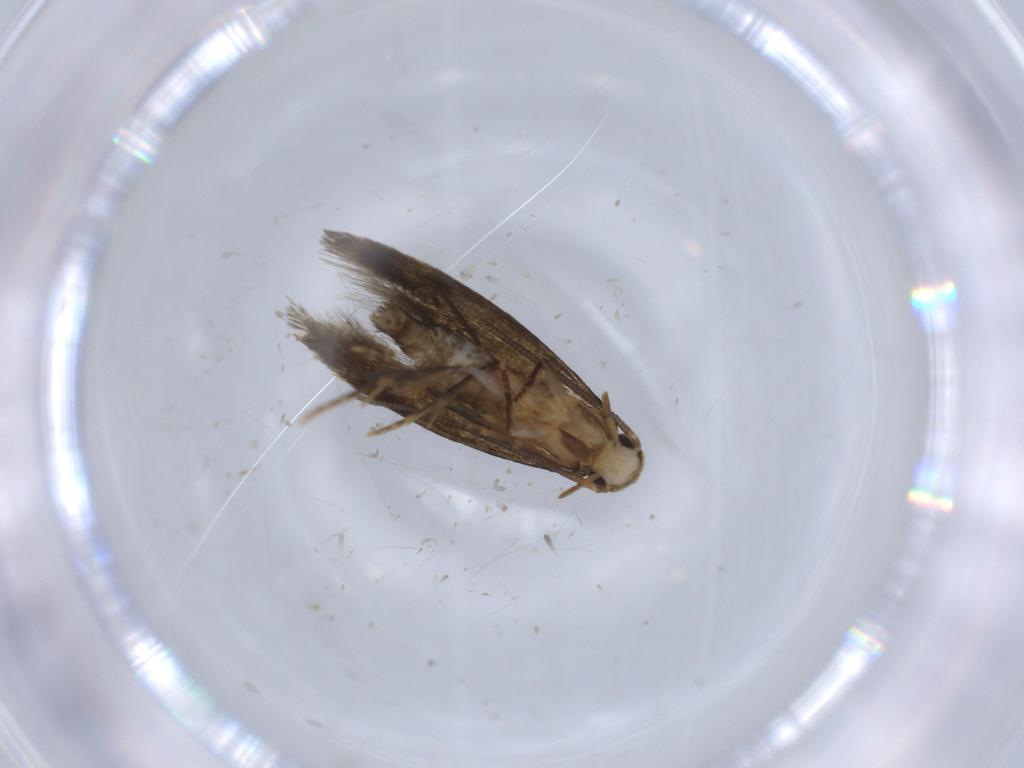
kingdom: Animalia
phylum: Arthropoda
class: Insecta
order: Lepidoptera
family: Tineidae
